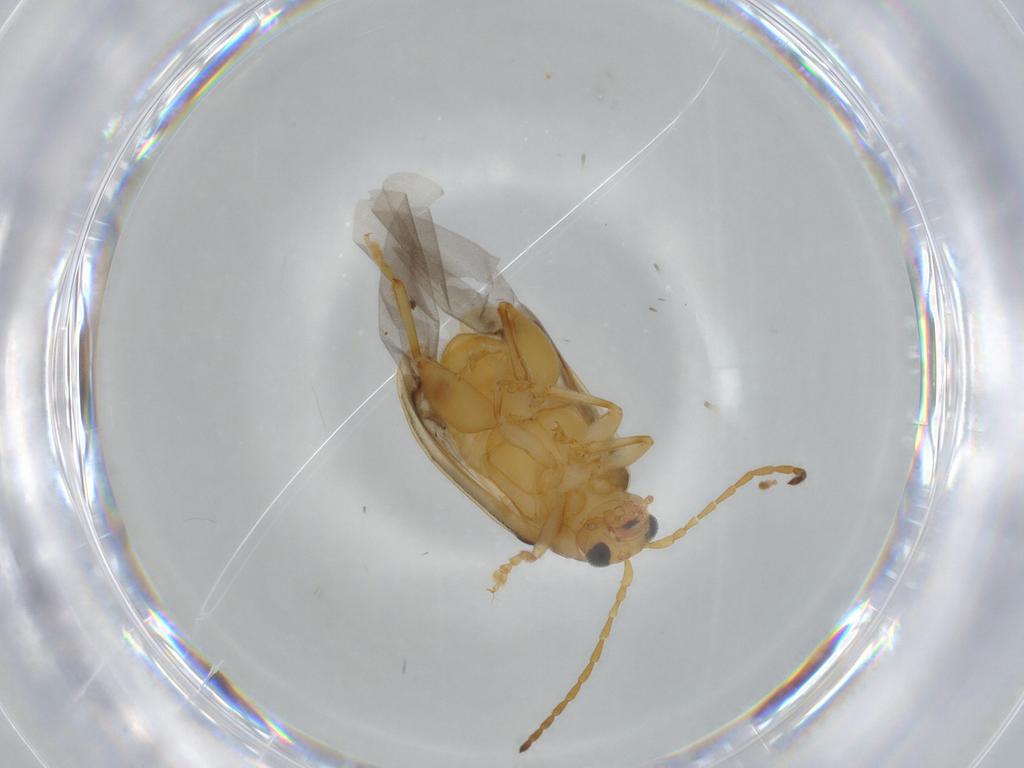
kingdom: Animalia
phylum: Arthropoda
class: Insecta
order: Coleoptera
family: Chrysomelidae
